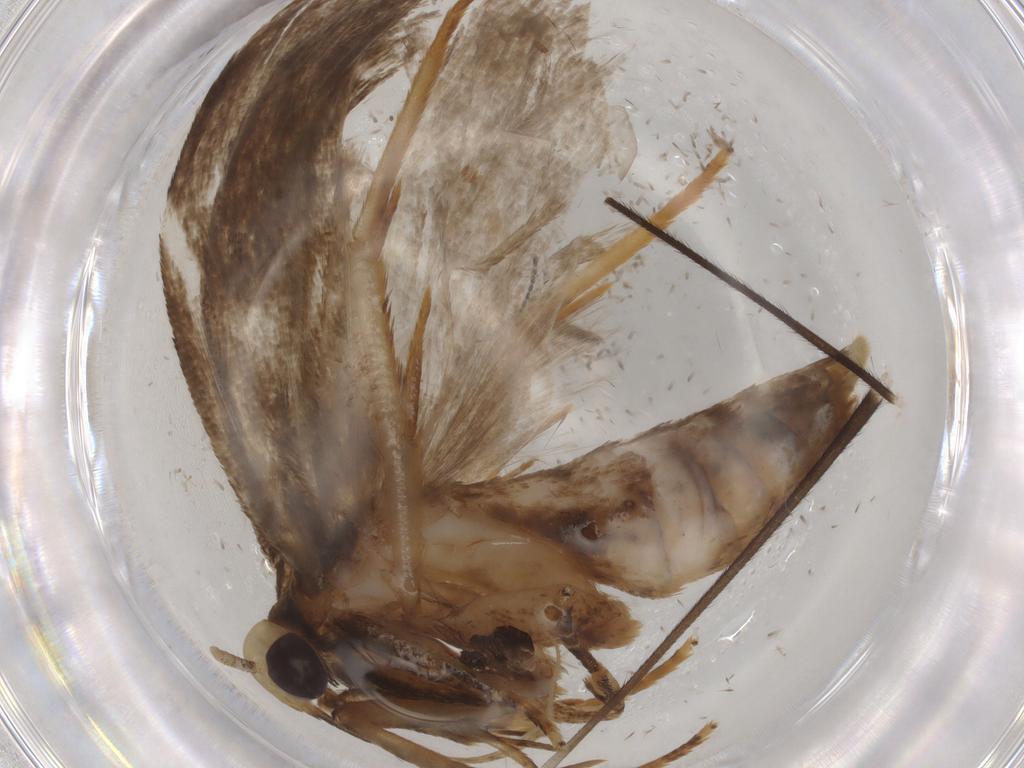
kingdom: Animalia
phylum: Arthropoda
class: Insecta
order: Lepidoptera
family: Autostichidae
